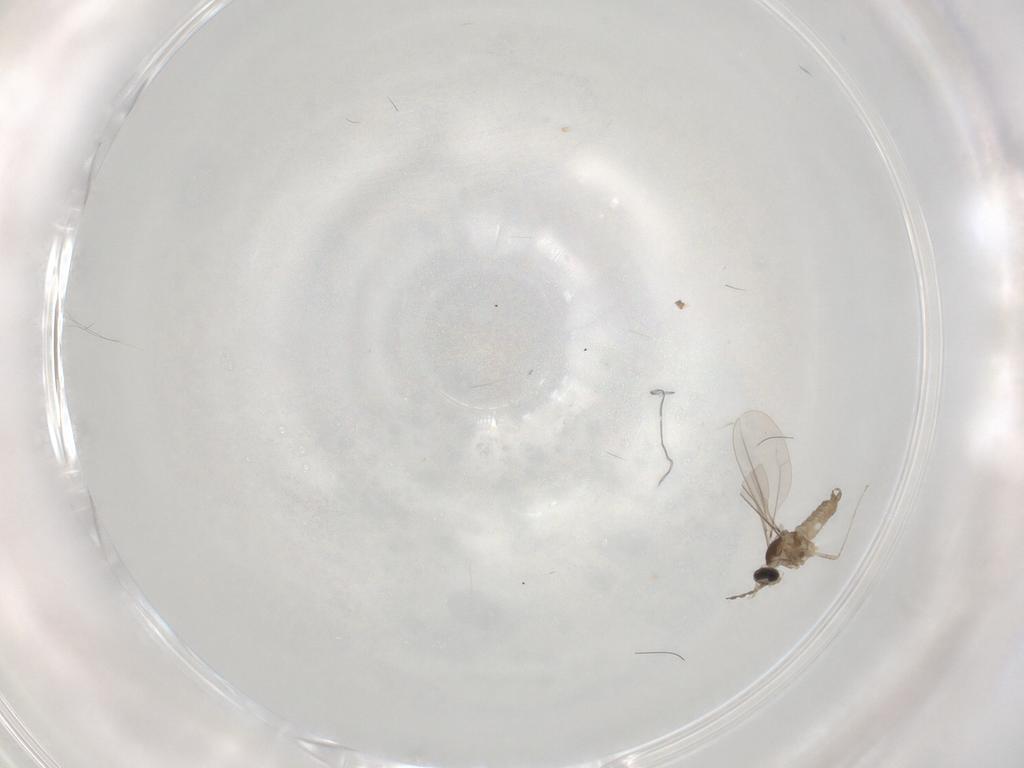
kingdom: Animalia
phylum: Arthropoda
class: Insecta
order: Diptera
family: Cecidomyiidae
